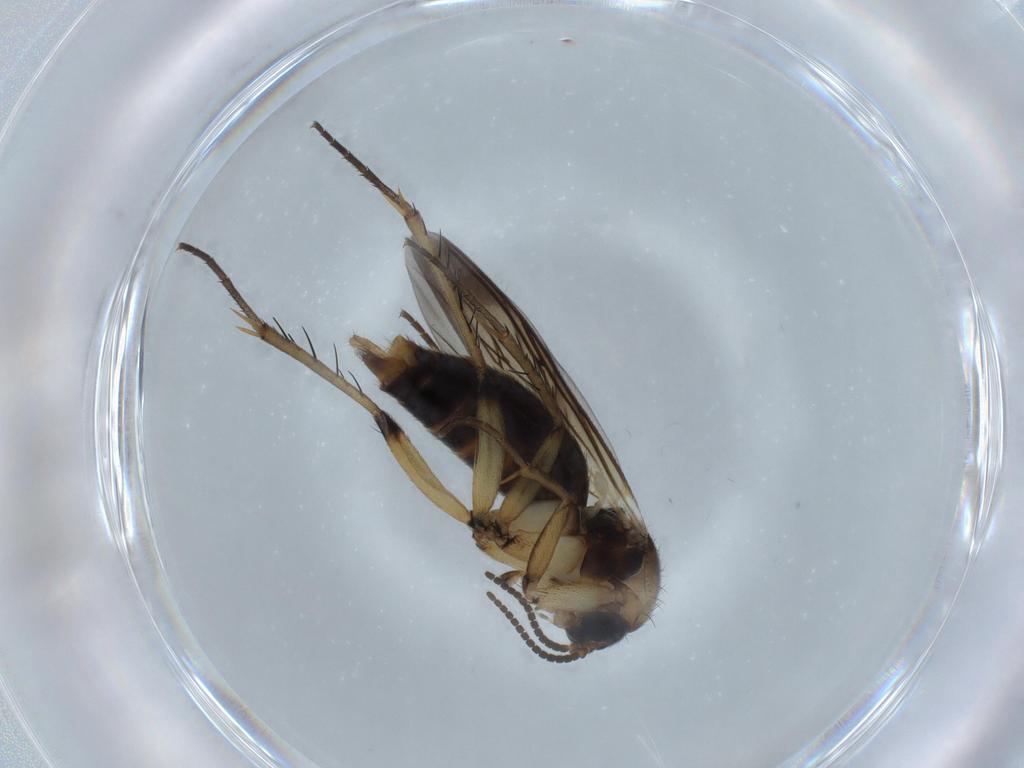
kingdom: Animalia
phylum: Arthropoda
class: Insecta
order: Diptera
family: Mycetophilidae
